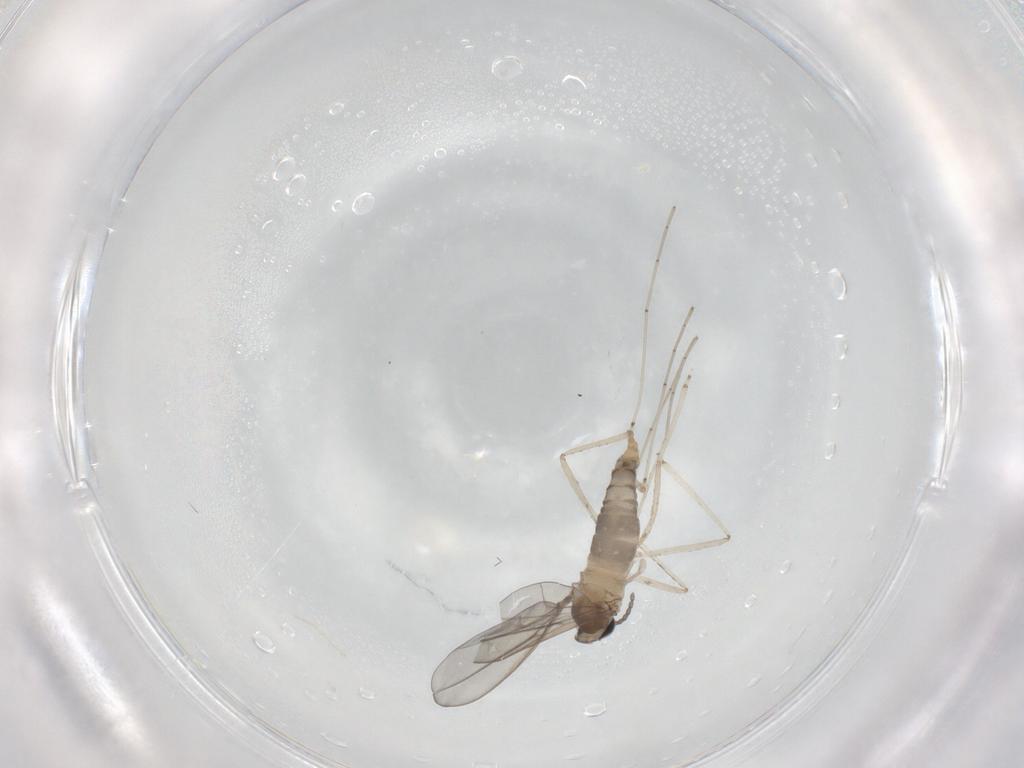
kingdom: Animalia
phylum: Arthropoda
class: Insecta
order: Diptera
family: Cecidomyiidae
